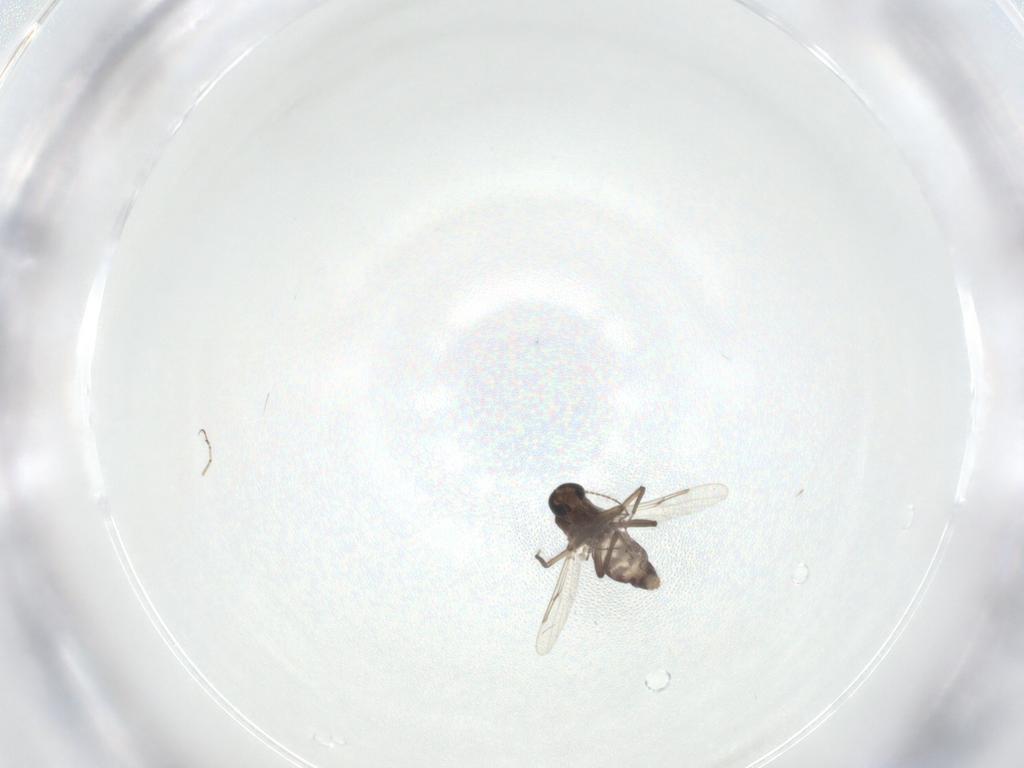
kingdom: Animalia
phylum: Arthropoda
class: Insecta
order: Diptera
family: Ceratopogonidae
